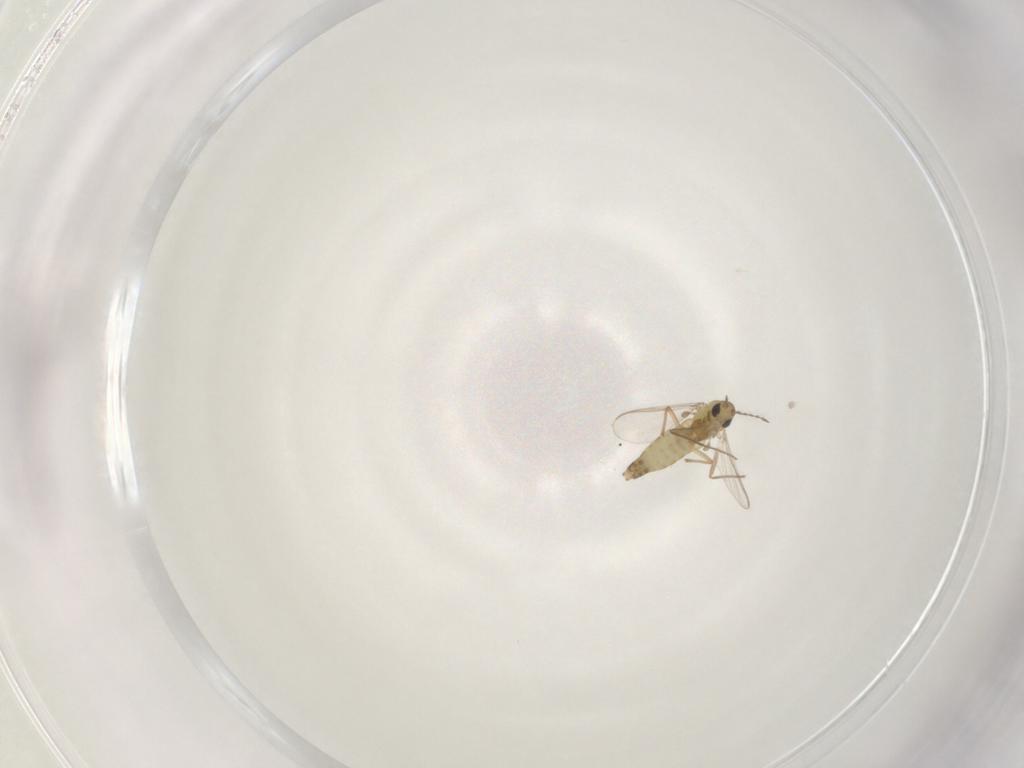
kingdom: Animalia
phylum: Arthropoda
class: Insecta
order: Diptera
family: Chironomidae
